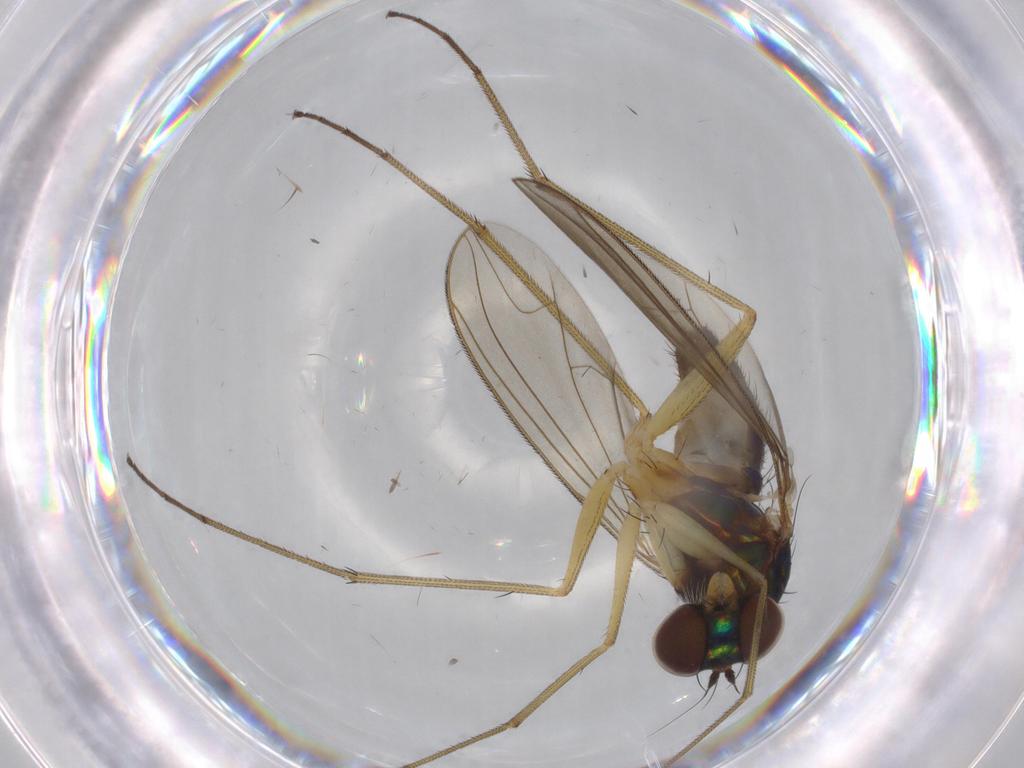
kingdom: Animalia
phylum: Arthropoda
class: Insecta
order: Diptera
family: Dolichopodidae
